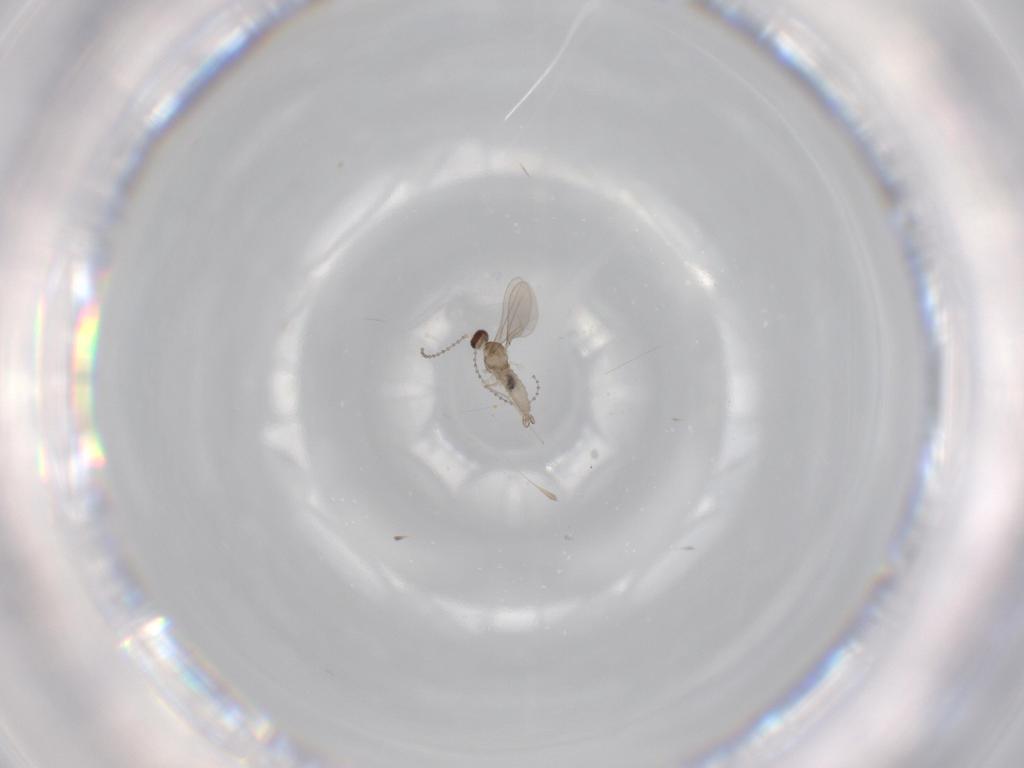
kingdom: Animalia
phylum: Arthropoda
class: Insecta
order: Diptera
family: Cecidomyiidae
